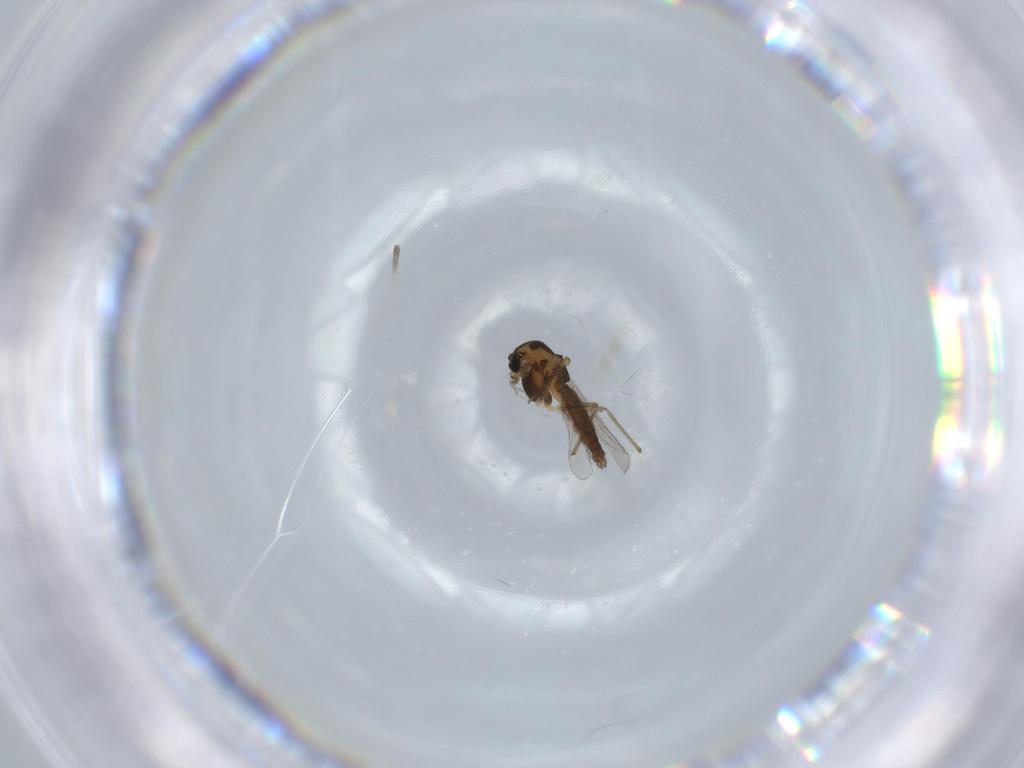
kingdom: Animalia
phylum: Arthropoda
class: Insecta
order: Diptera
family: Chironomidae
